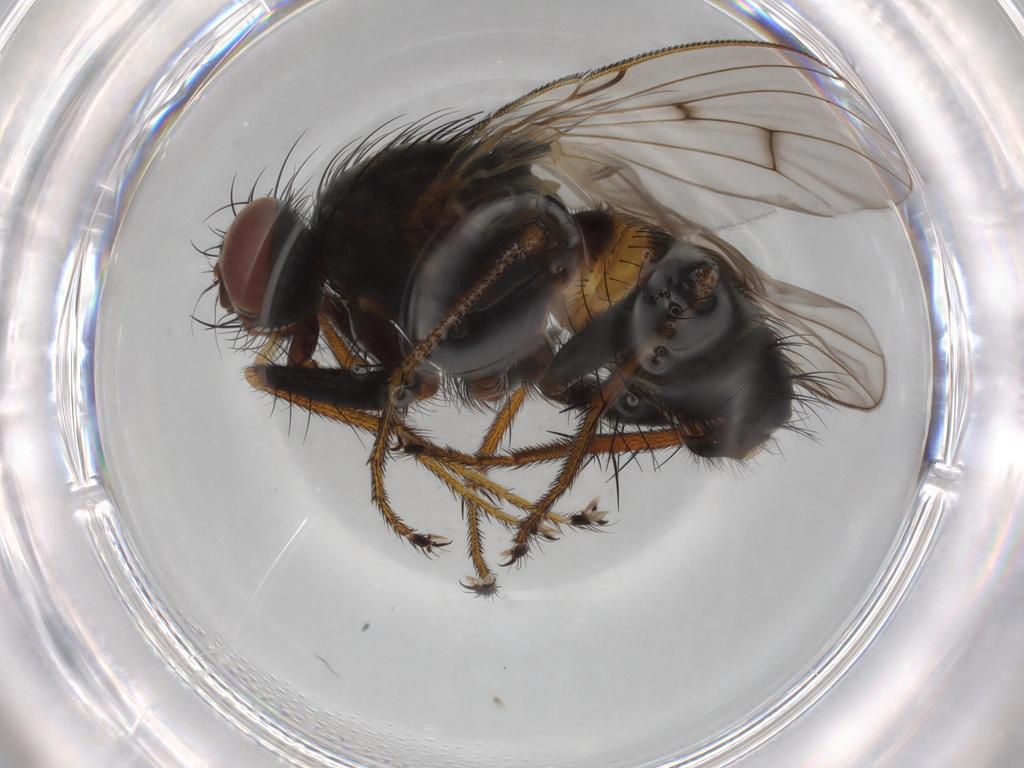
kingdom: Animalia
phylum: Arthropoda
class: Insecta
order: Diptera
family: Muscidae
